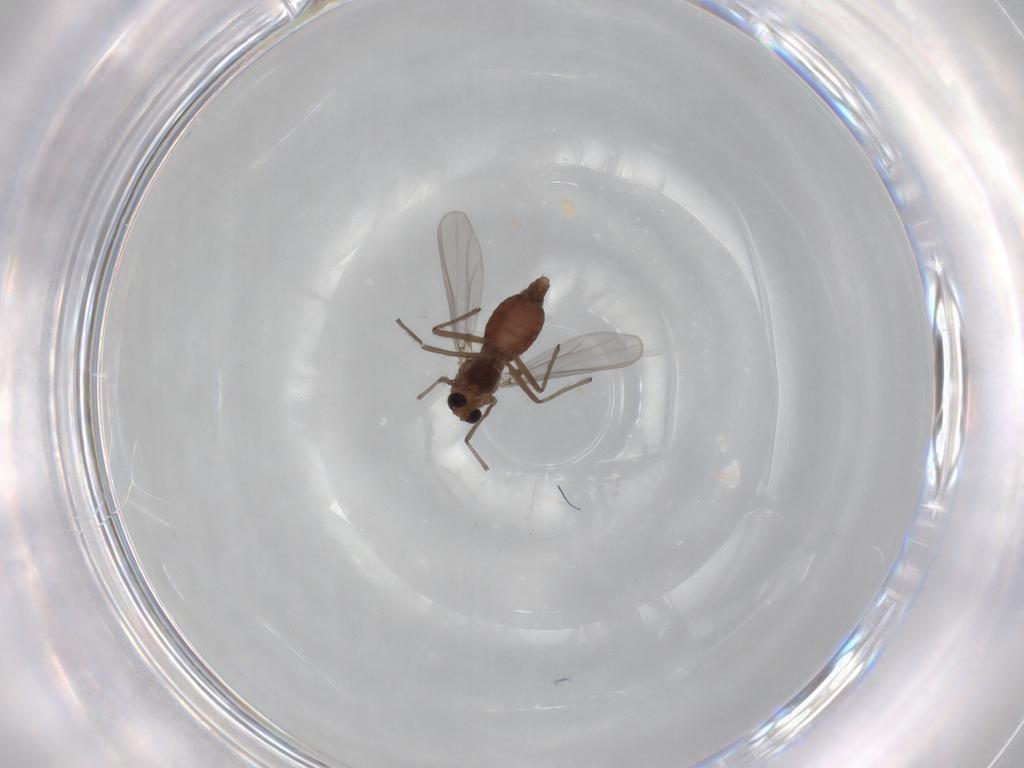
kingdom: Animalia
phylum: Arthropoda
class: Insecta
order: Diptera
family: Chironomidae
